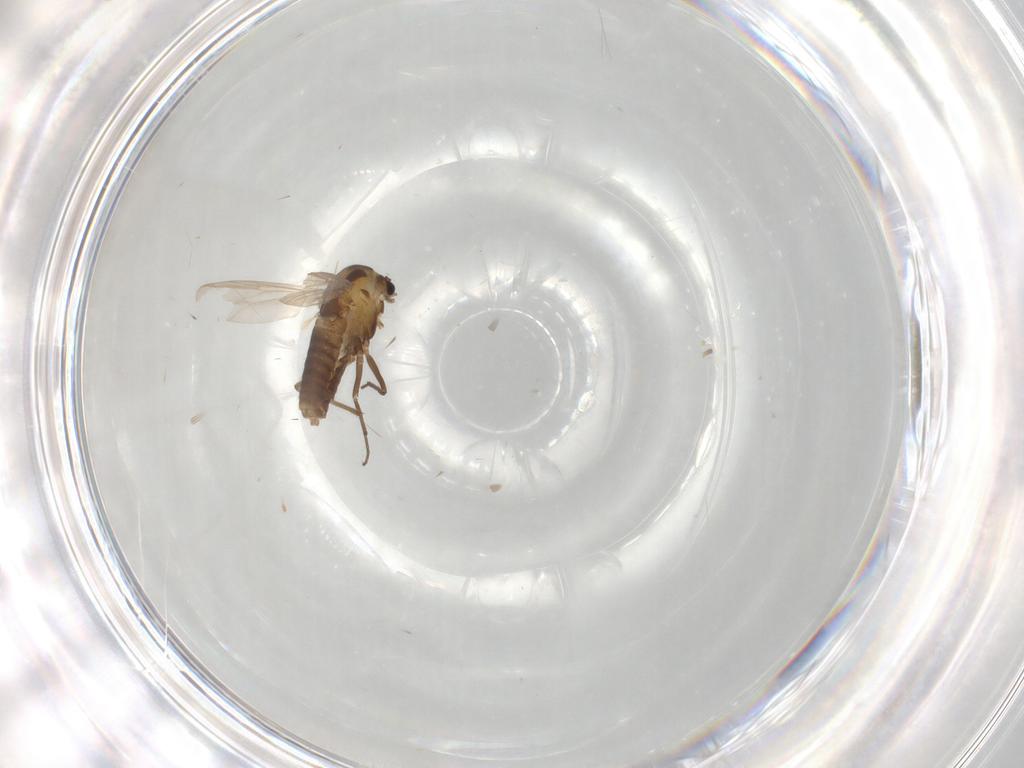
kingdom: Animalia
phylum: Arthropoda
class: Insecta
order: Diptera
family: Chironomidae
